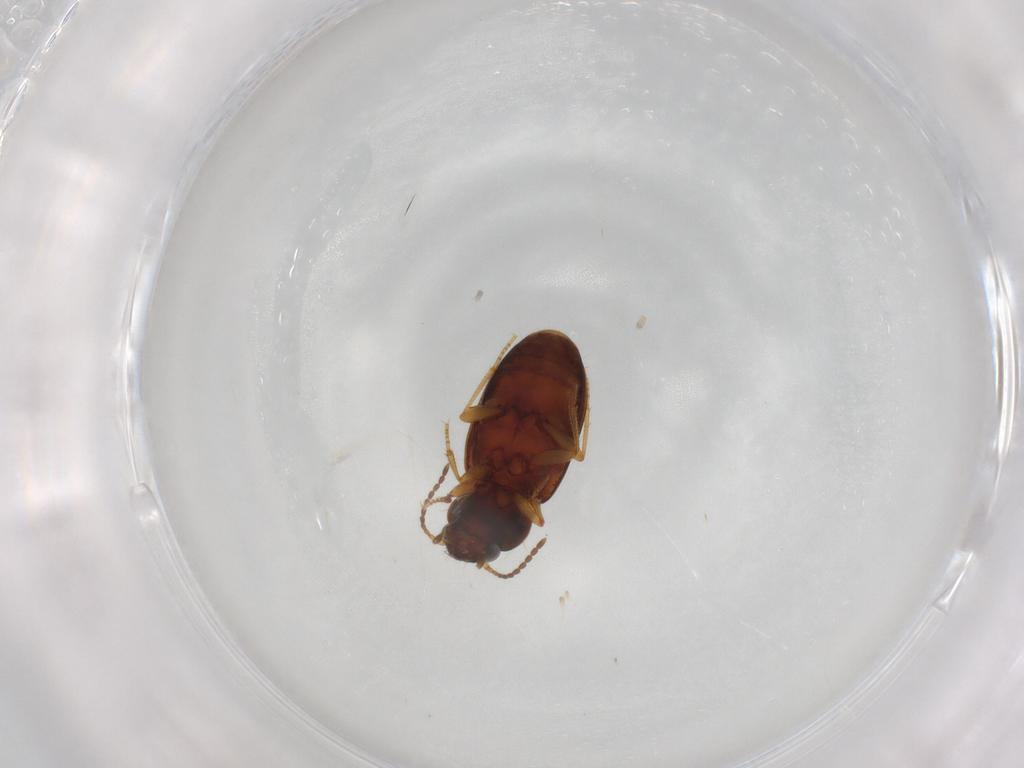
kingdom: Animalia
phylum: Arthropoda
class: Insecta
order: Coleoptera
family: Carabidae
